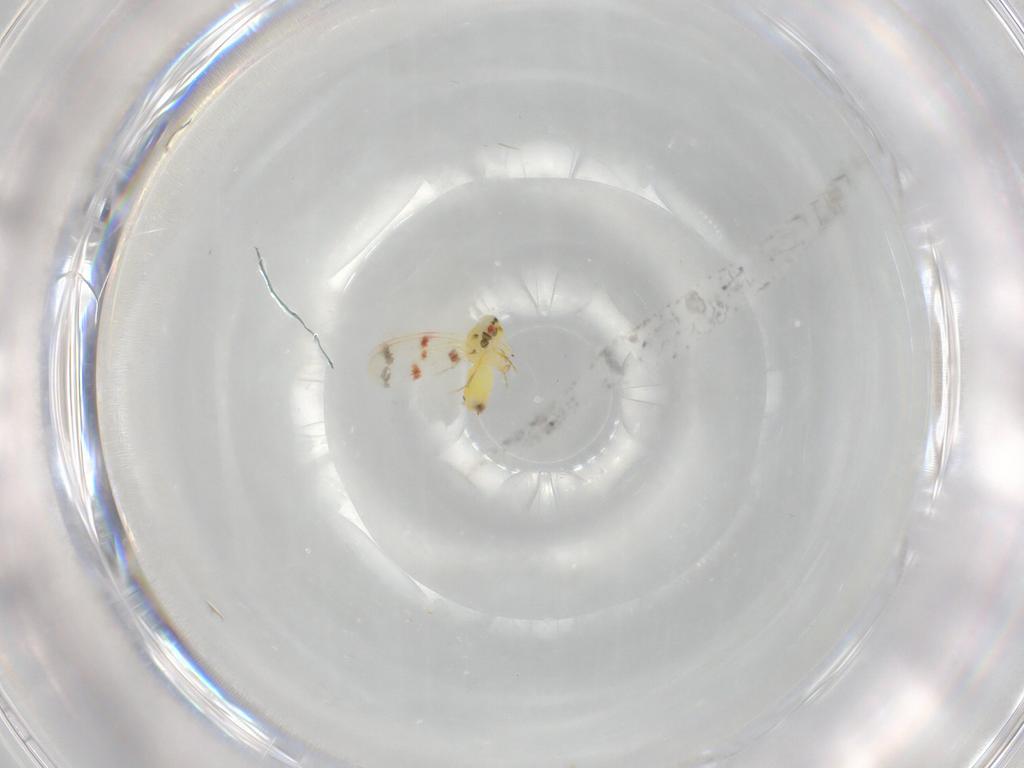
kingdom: Animalia
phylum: Arthropoda
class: Insecta
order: Hemiptera
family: Aleyrodidae
